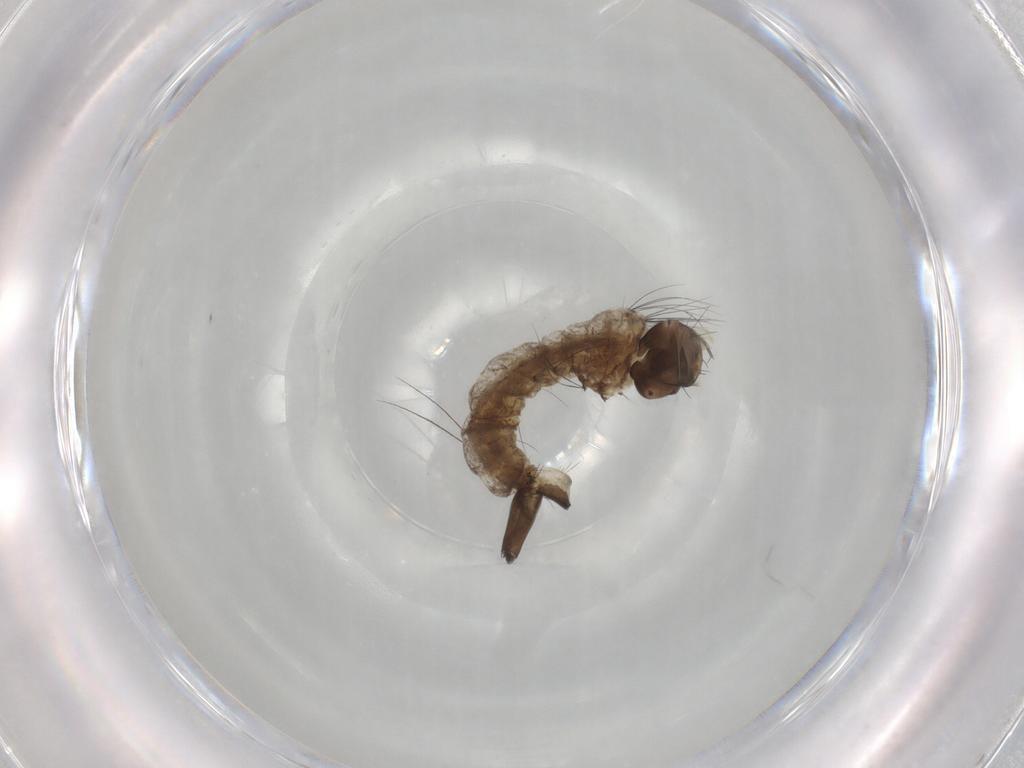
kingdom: Animalia
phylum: Arthropoda
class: Insecta
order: Diptera
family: Culicidae
